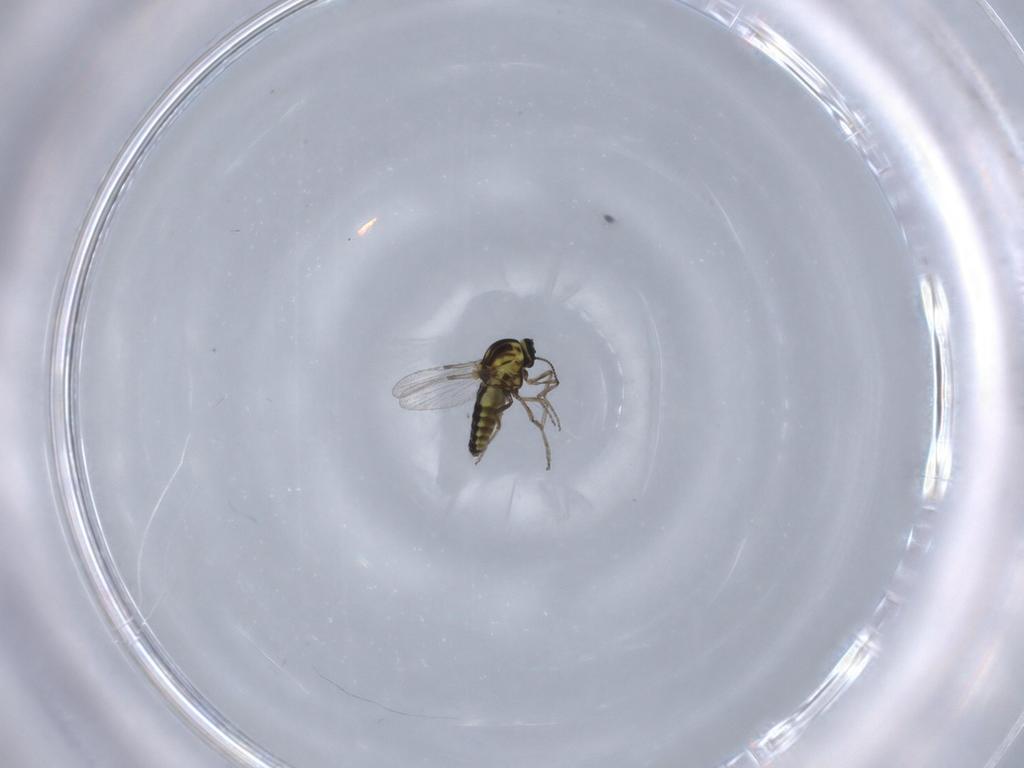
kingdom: Animalia
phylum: Arthropoda
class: Insecta
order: Diptera
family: Ceratopogonidae
